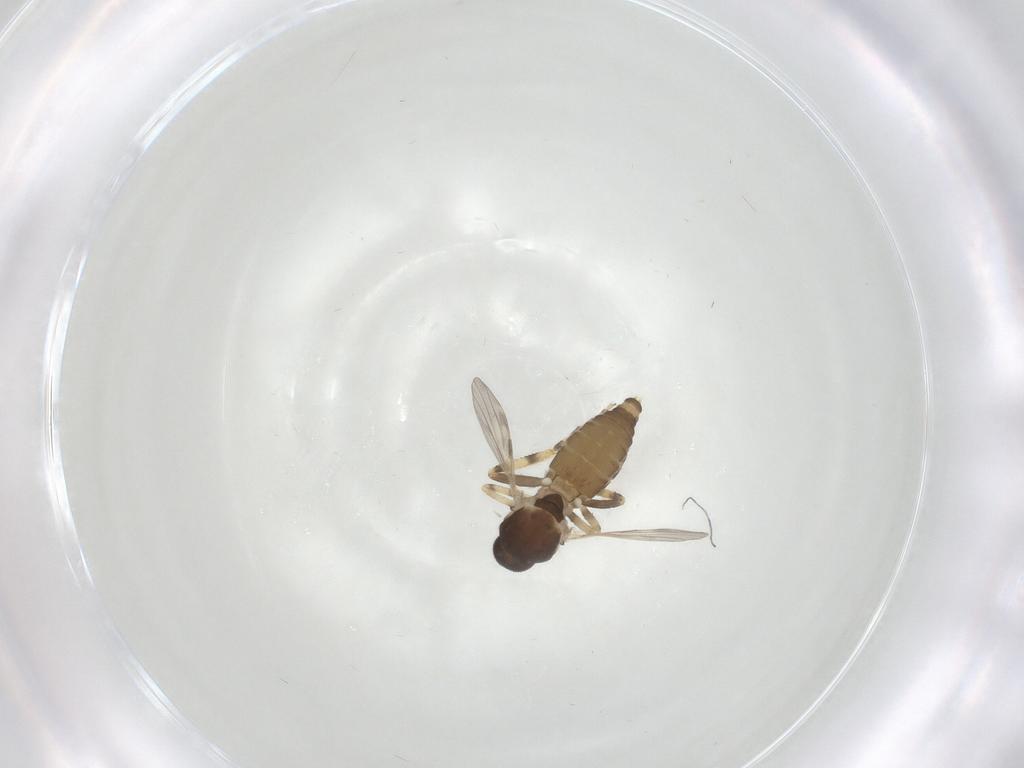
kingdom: Animalia
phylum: Arthropoda
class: Insecta
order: Diptera
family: Ceratopogonidae
